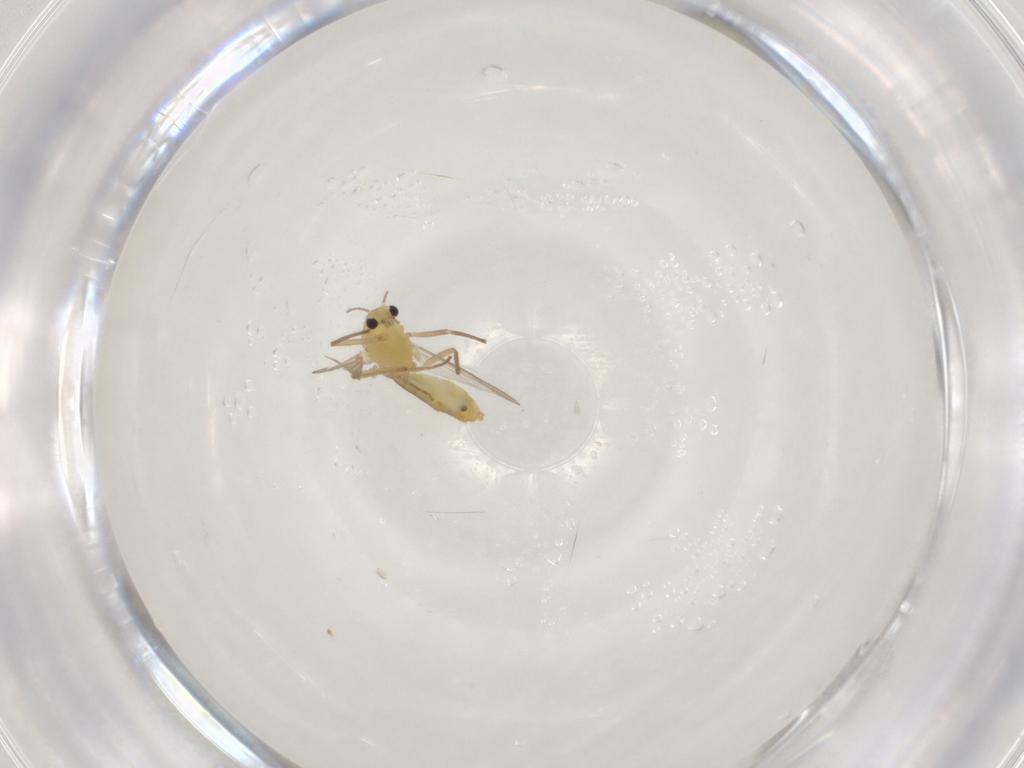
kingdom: Animalia
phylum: Arthropoda
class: Insecta
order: Diptera
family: Chironomidae
